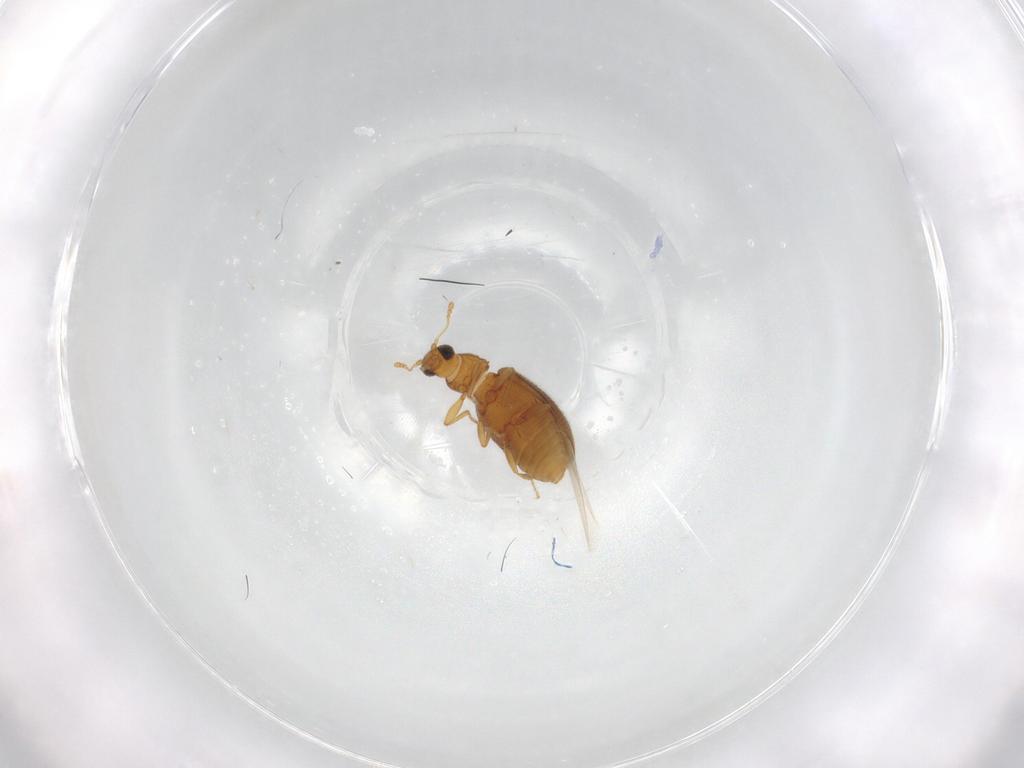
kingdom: Animalia
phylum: Arthropoda
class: Insecta
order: Coleoptera
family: Latridiidae
